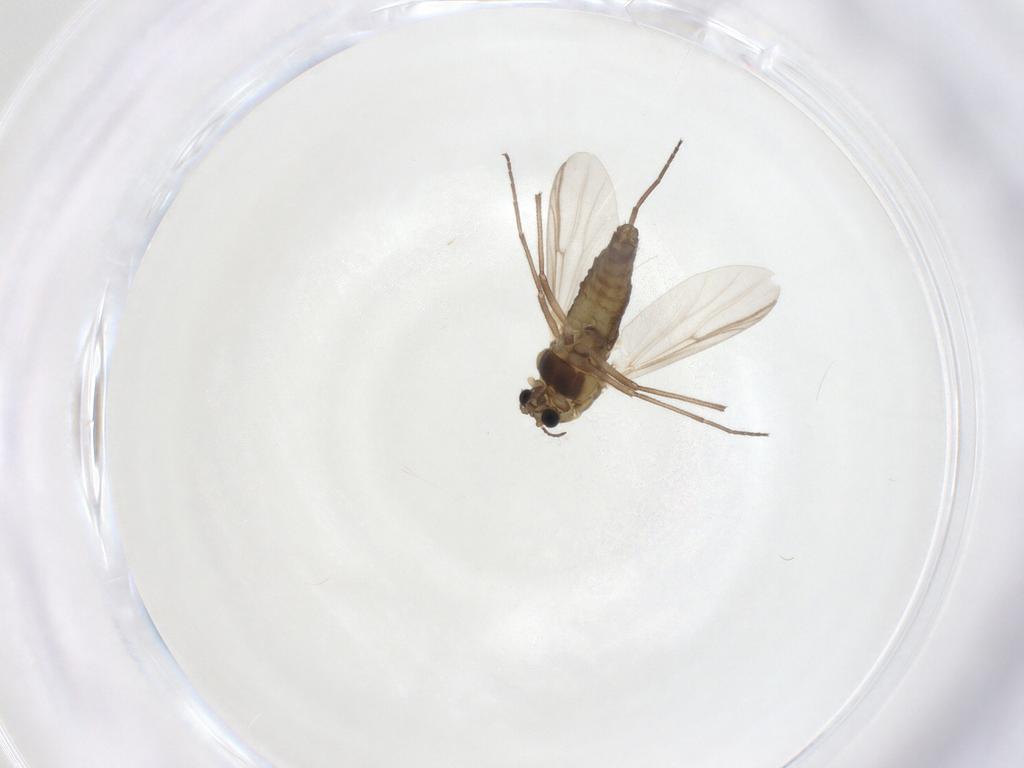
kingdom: Animalia
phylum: Arthropoda
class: Insecta
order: Diptera
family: Chironomidae
